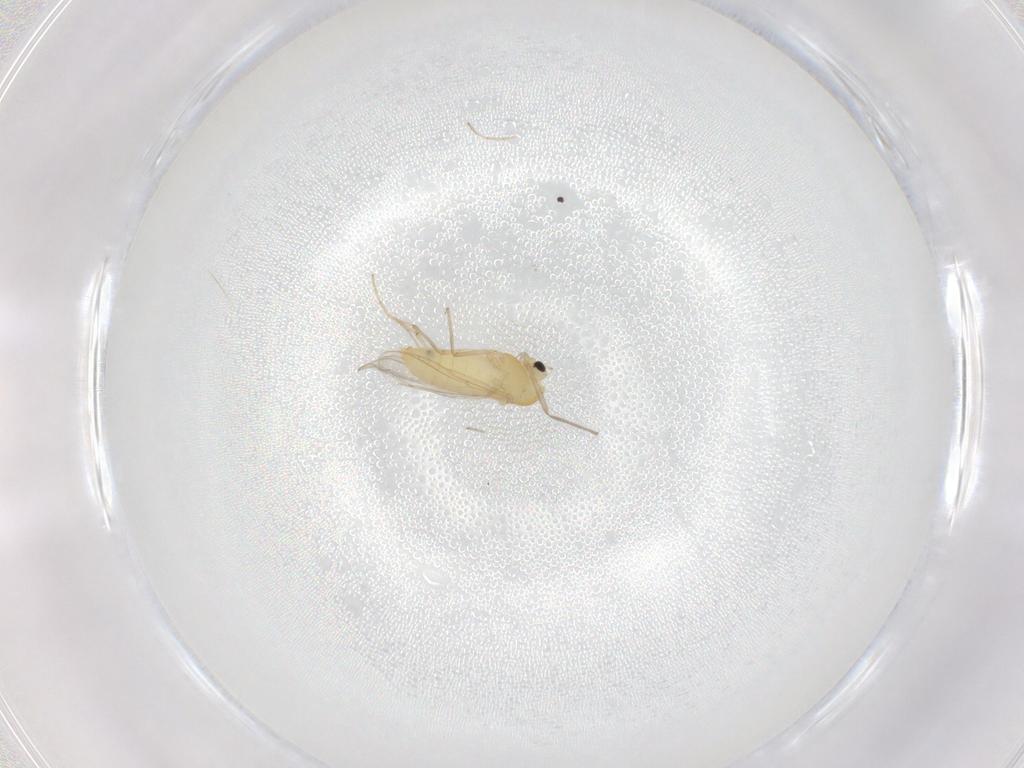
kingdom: Animalia
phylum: Arthropoda
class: Insecta
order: Diptera
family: Chironomidae
